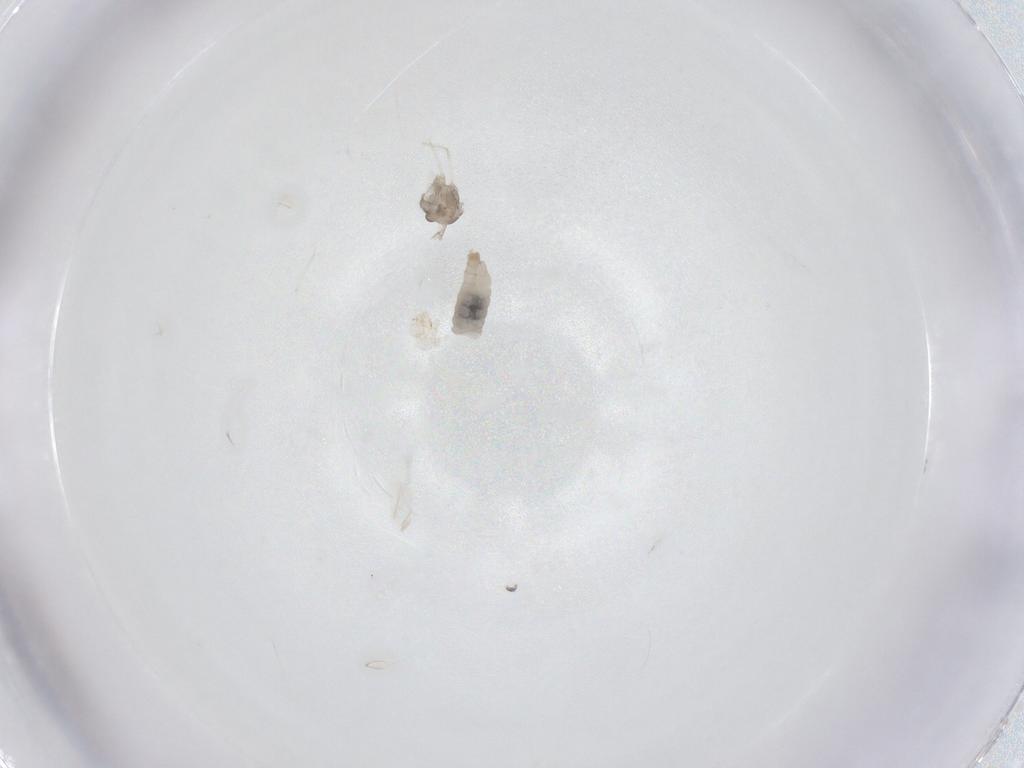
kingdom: Animalia
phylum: Arthropoda
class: Insecta
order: Diptera
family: Cecidomyiidae
